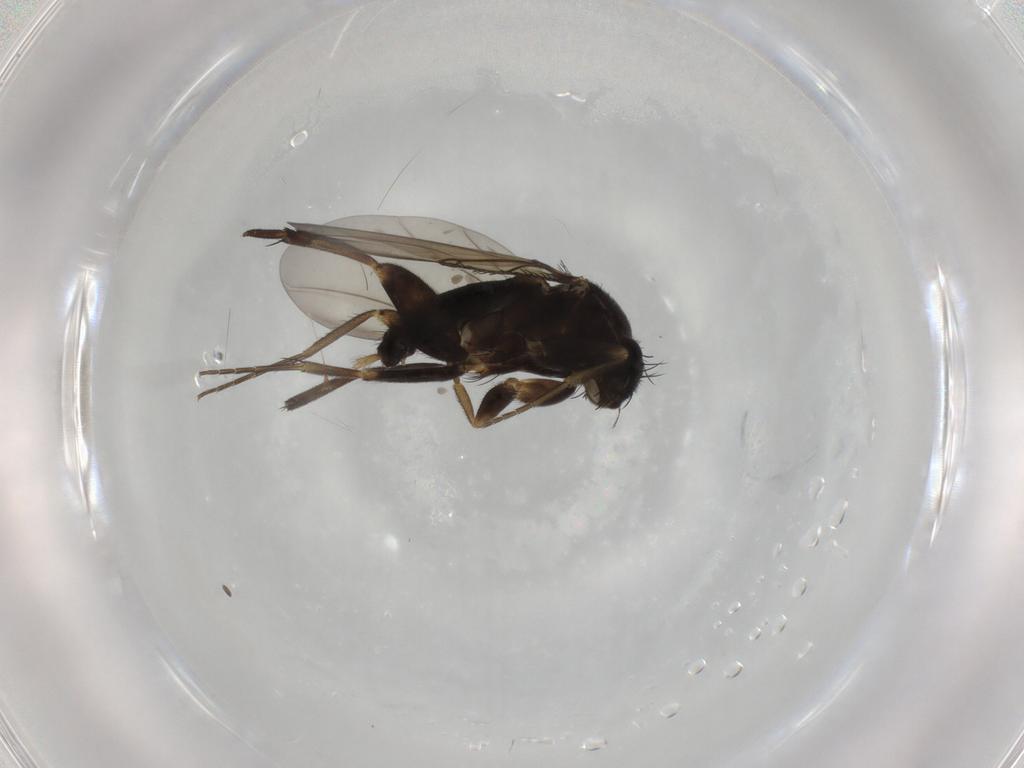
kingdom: Animalia
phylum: Arthropoda
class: Insecta
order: Diptera
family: Phoridae
